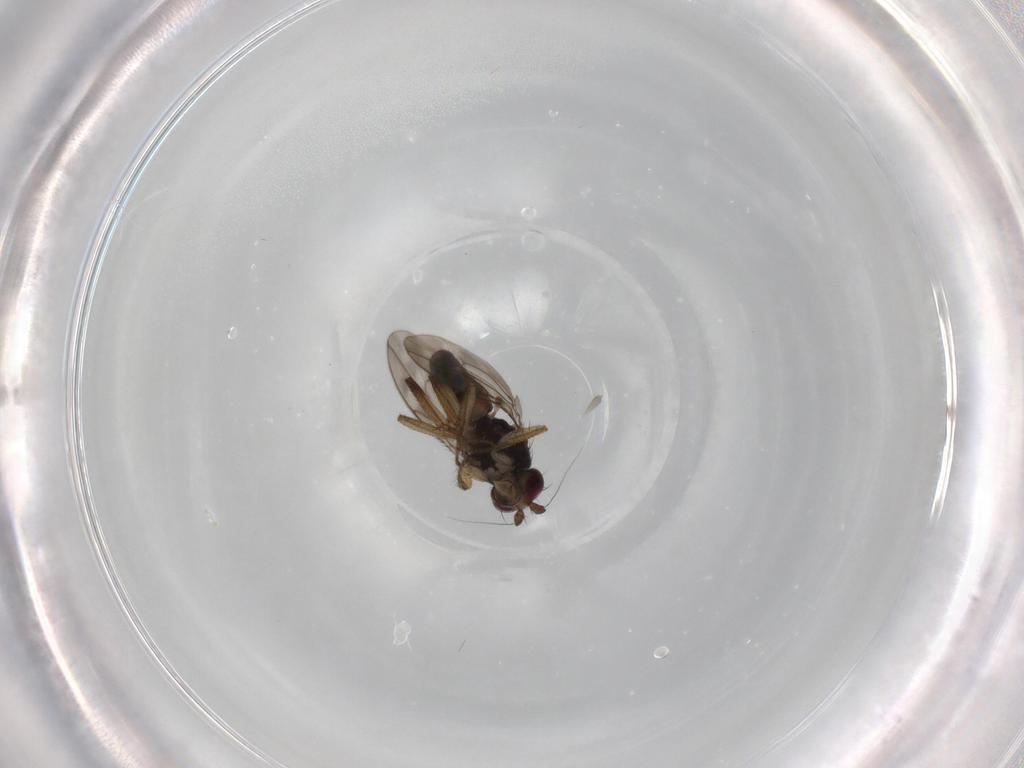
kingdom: Animalia
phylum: Arthropoda
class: Insecta
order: Diptera
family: Sphaeroceridae
